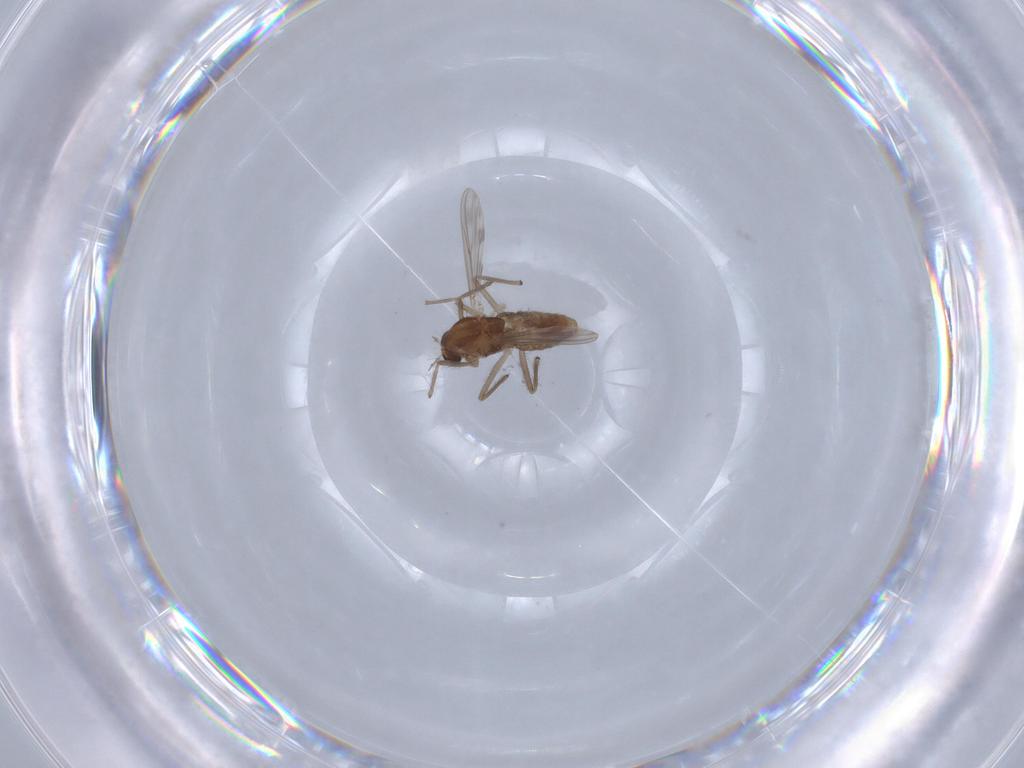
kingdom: Animalia
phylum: Arthropoda
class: Insecta
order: Diptera
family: Chironomidae
